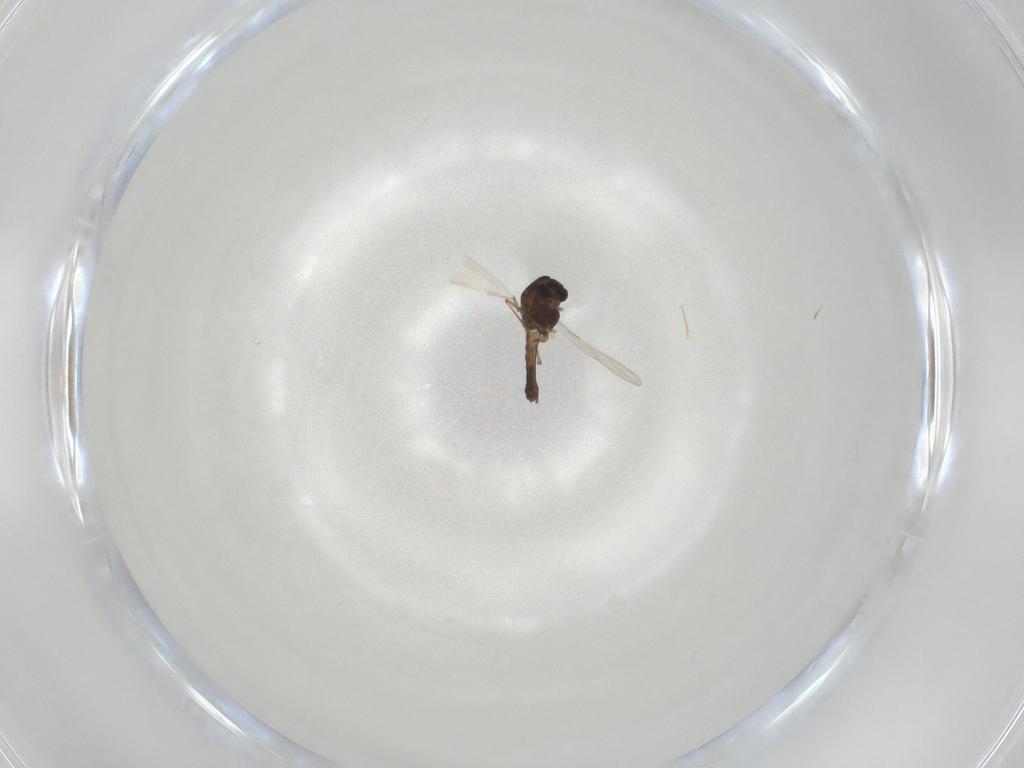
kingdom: Animalia
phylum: Arthropoda
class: Insecta
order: Diptera
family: Chironomidae
